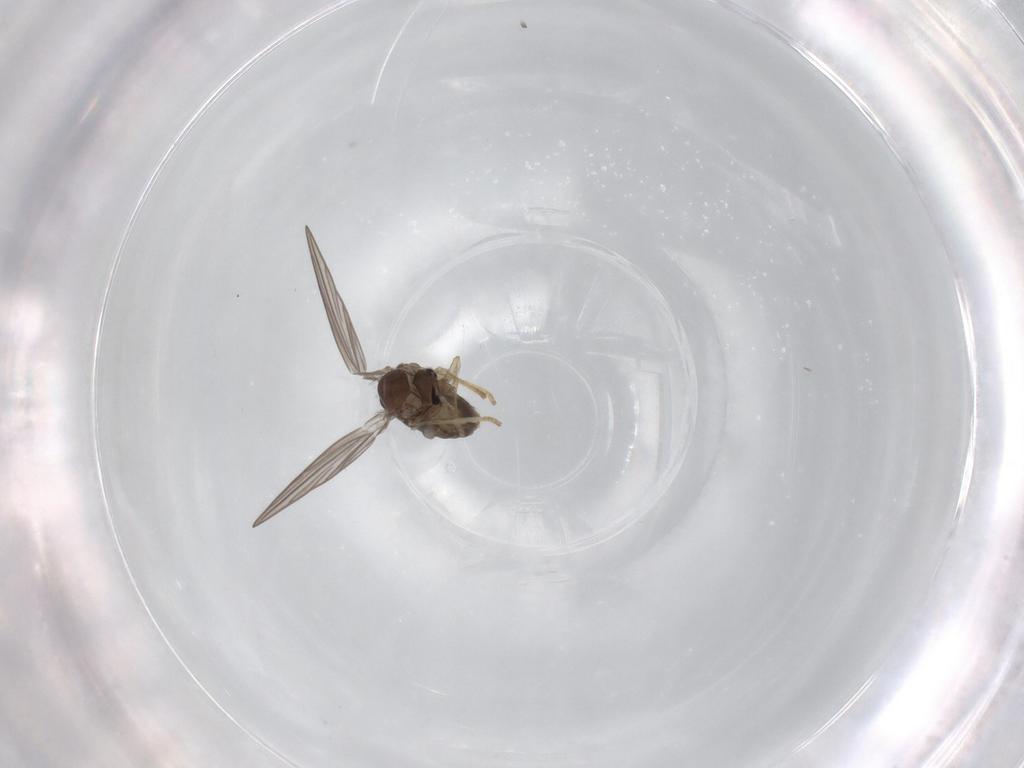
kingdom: Animalia
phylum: Arthropoda
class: Insecta
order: Diptera
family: Psychodidae
